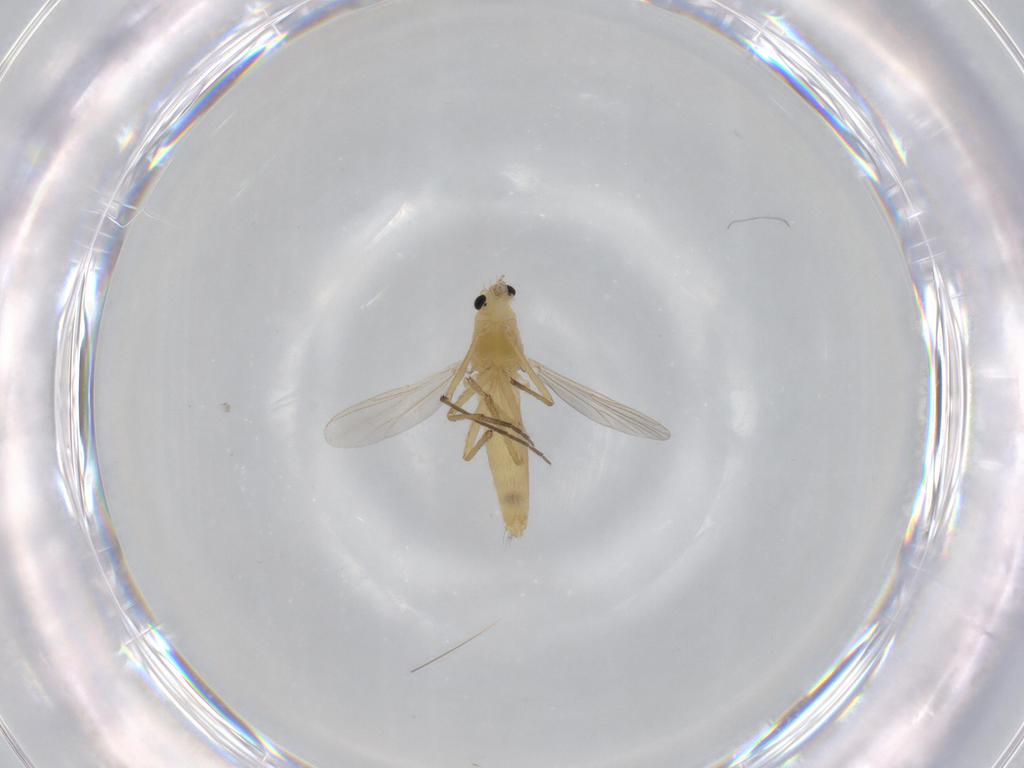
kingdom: Animalia
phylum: Arthropoda
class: Insecta
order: Diptera
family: Chironomidae
